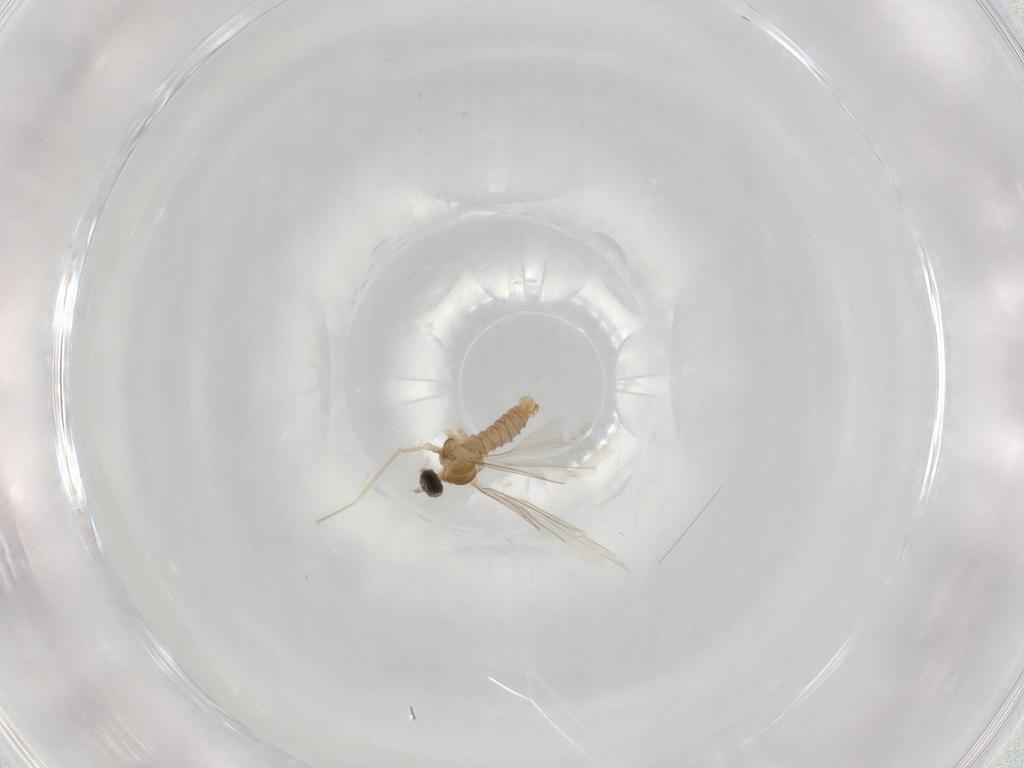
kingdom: Animalia
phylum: Arthropoda
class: Insecta
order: Diptera
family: Cecidomyiidae
